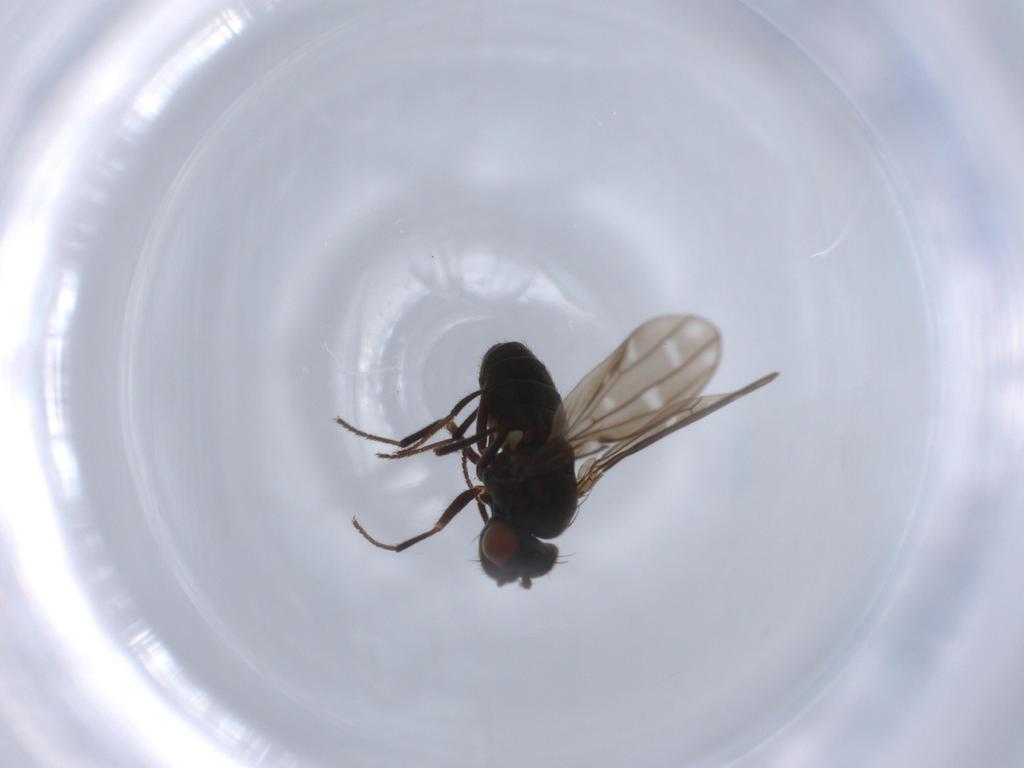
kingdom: Animalia
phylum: Arthropoda
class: Insecta
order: Diptera
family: Ephydridae
